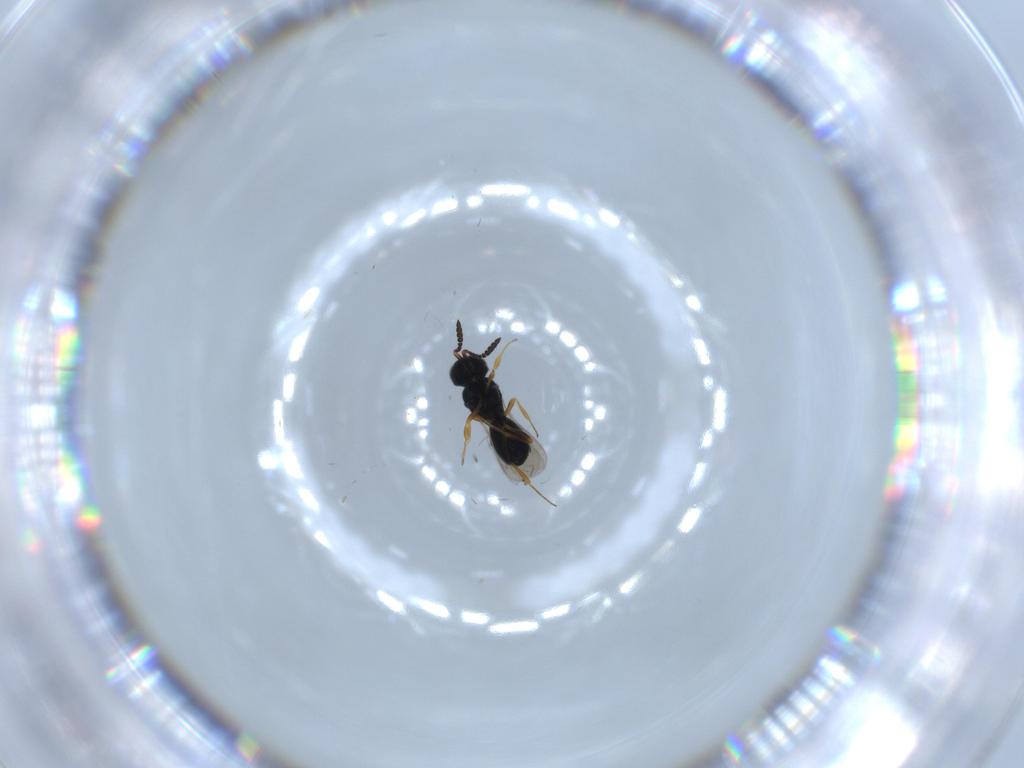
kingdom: Animalia
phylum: Arthropoda
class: Insecta
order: Hymenoptera
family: Scelionidae
